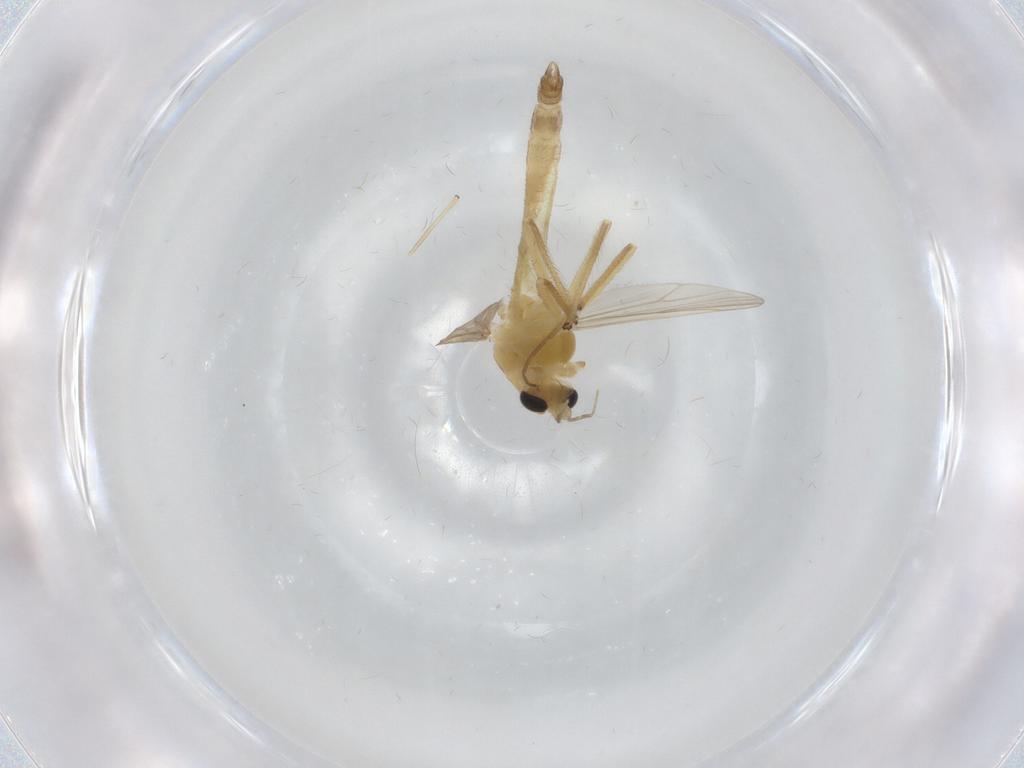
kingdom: Animalia
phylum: Arthropoda
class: Insecta
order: Diptera
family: Chironomidae
